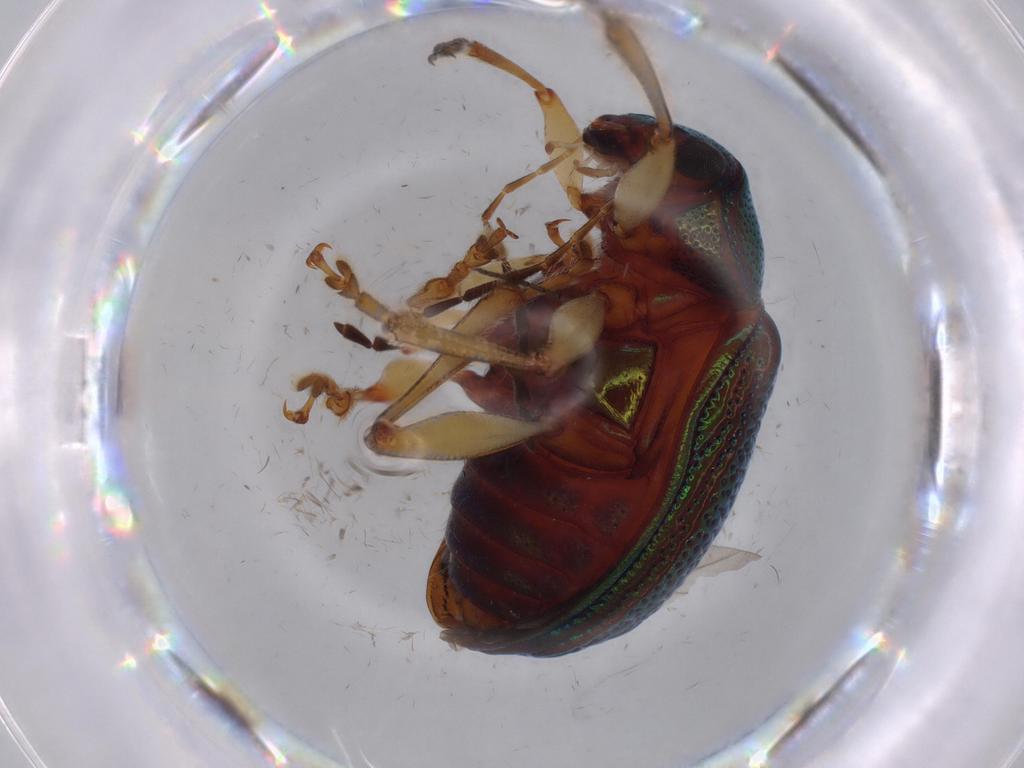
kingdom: Animalia
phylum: Arthropoda
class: Insecta
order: Coleoptera
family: Chrysomelidae
